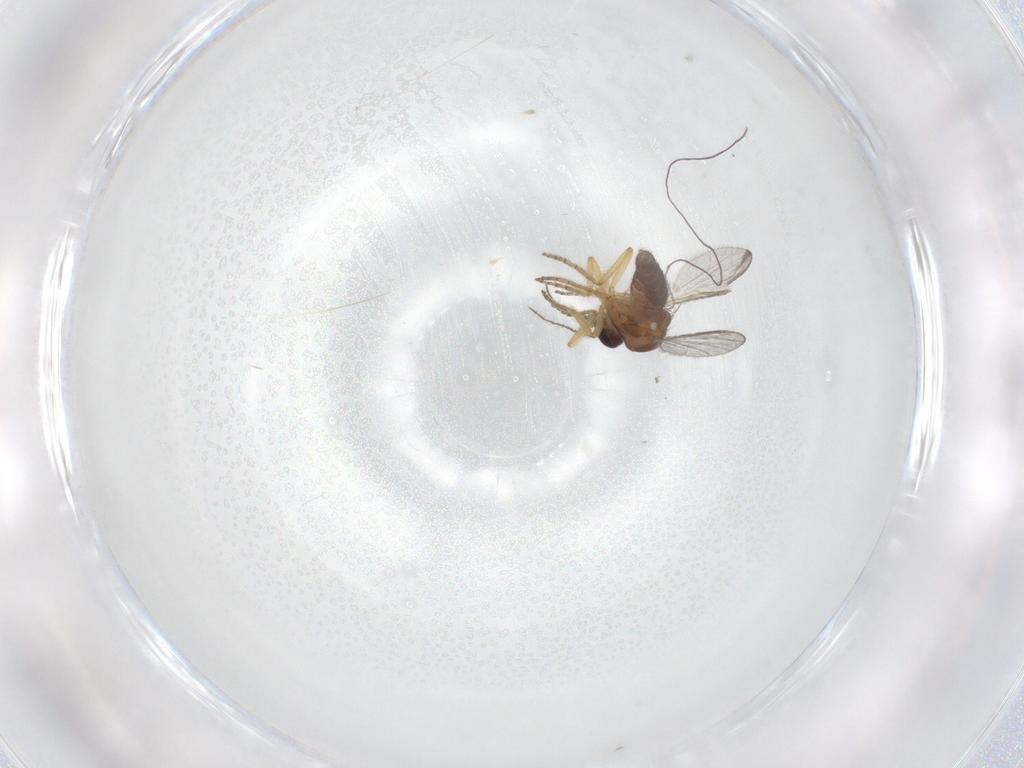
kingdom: Animalia
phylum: Arthropoda
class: Insecta
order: Diptera
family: Ceratopogonidae
